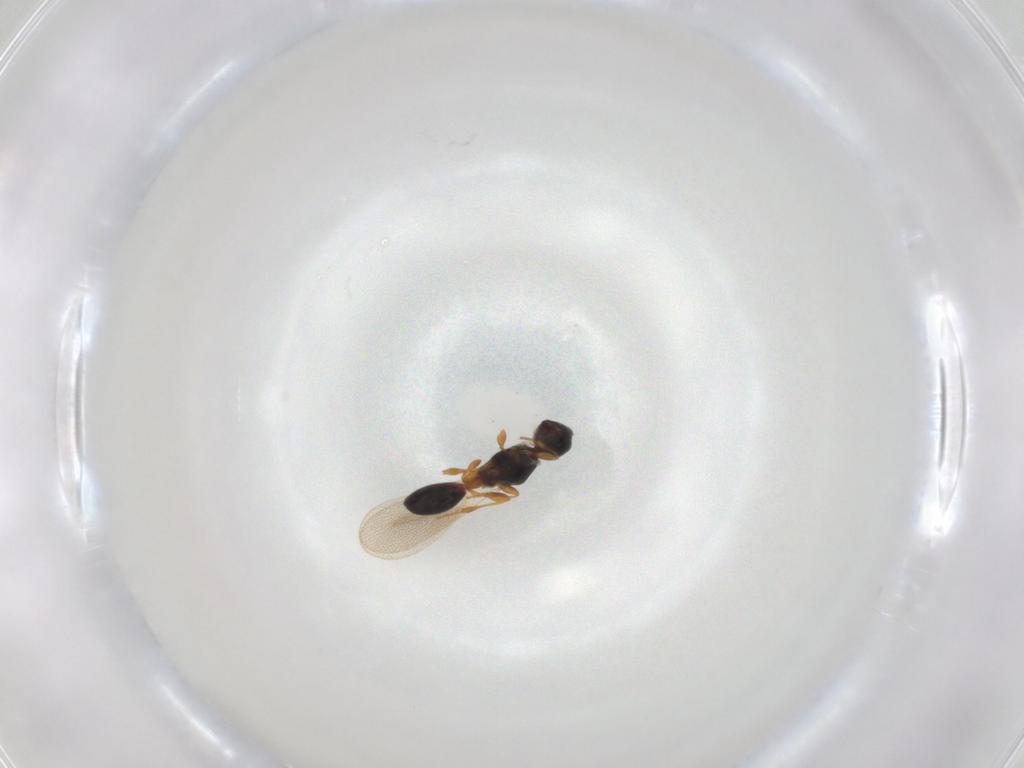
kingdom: Animalia
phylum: Arthropoda
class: Insecta
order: Hymenoptera
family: Diapriidae
